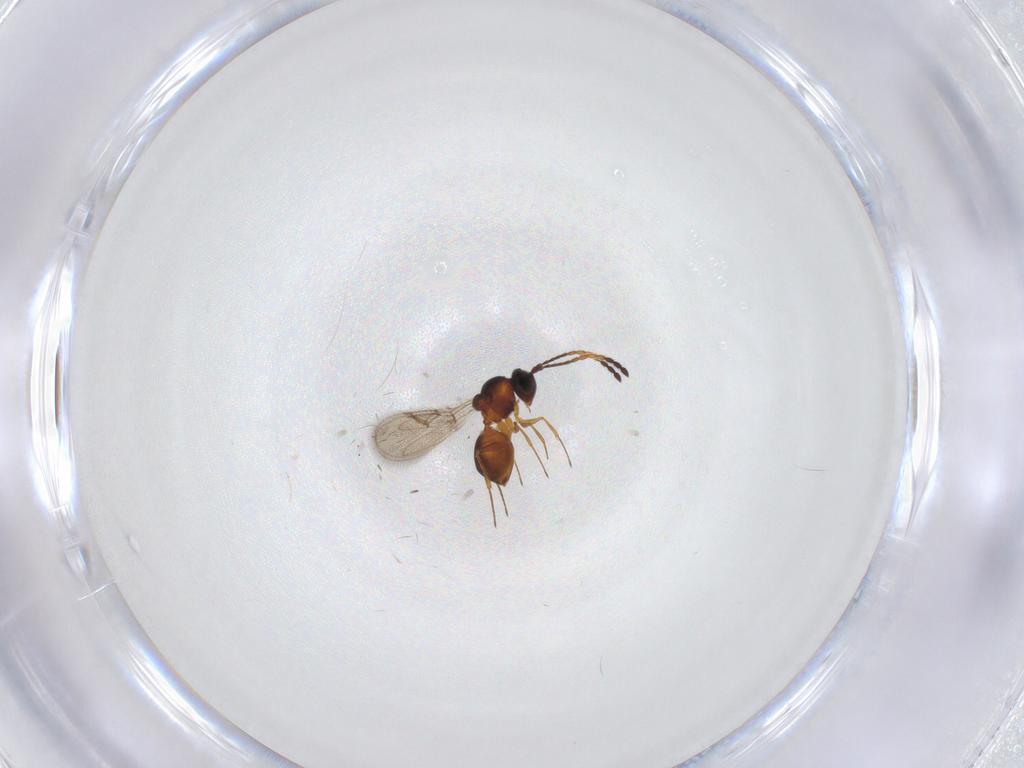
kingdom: Animalia
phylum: Arthropoda
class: Insecta
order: Hymenoptera
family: Figitidae
